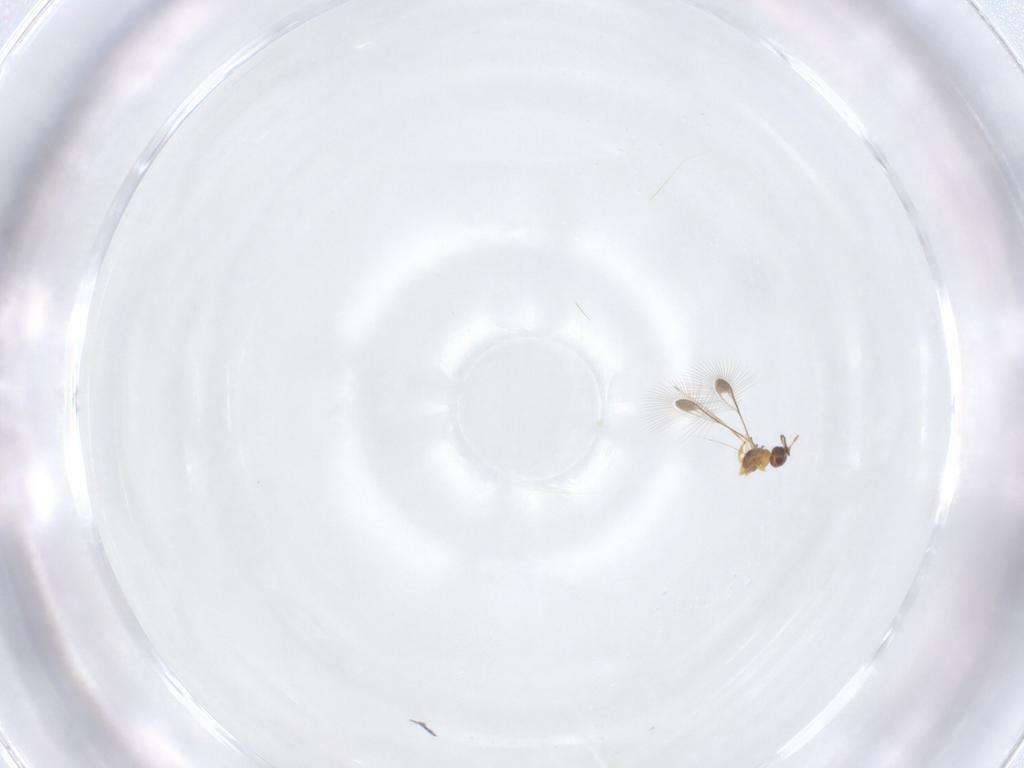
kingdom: Animalia
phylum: Arthropoda
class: Insecta
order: Hymenoptera
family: Mymaridae
